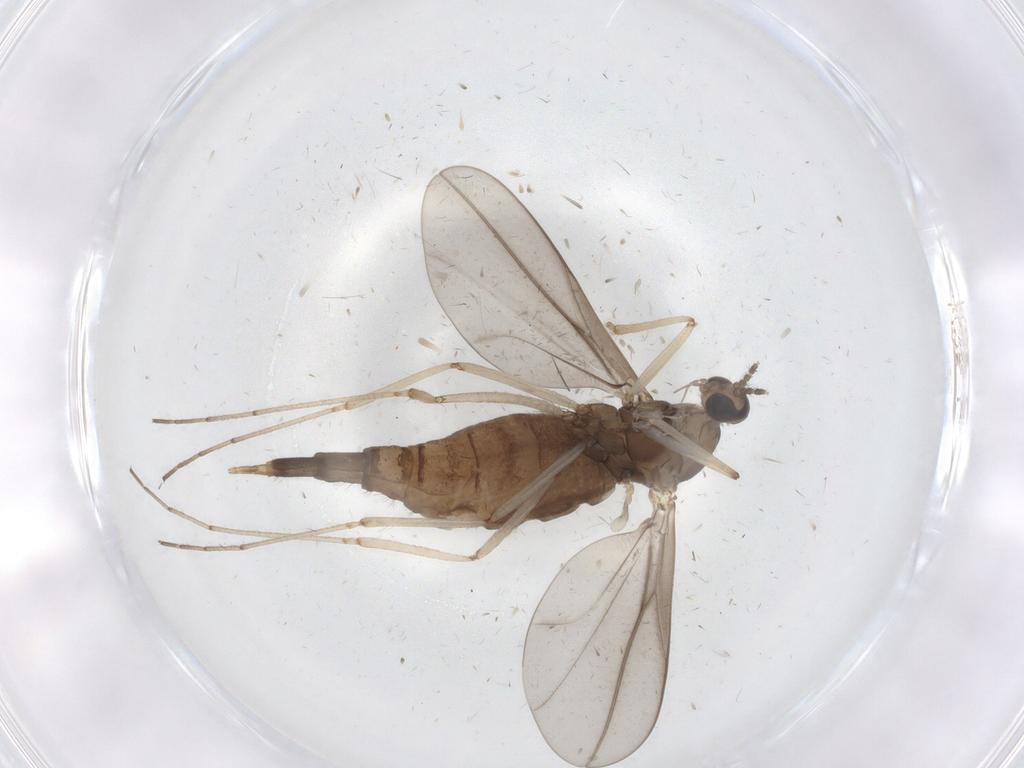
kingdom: Animalia
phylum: Arthropoda
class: Insecta
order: Diptera
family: Cecidomyiidae
